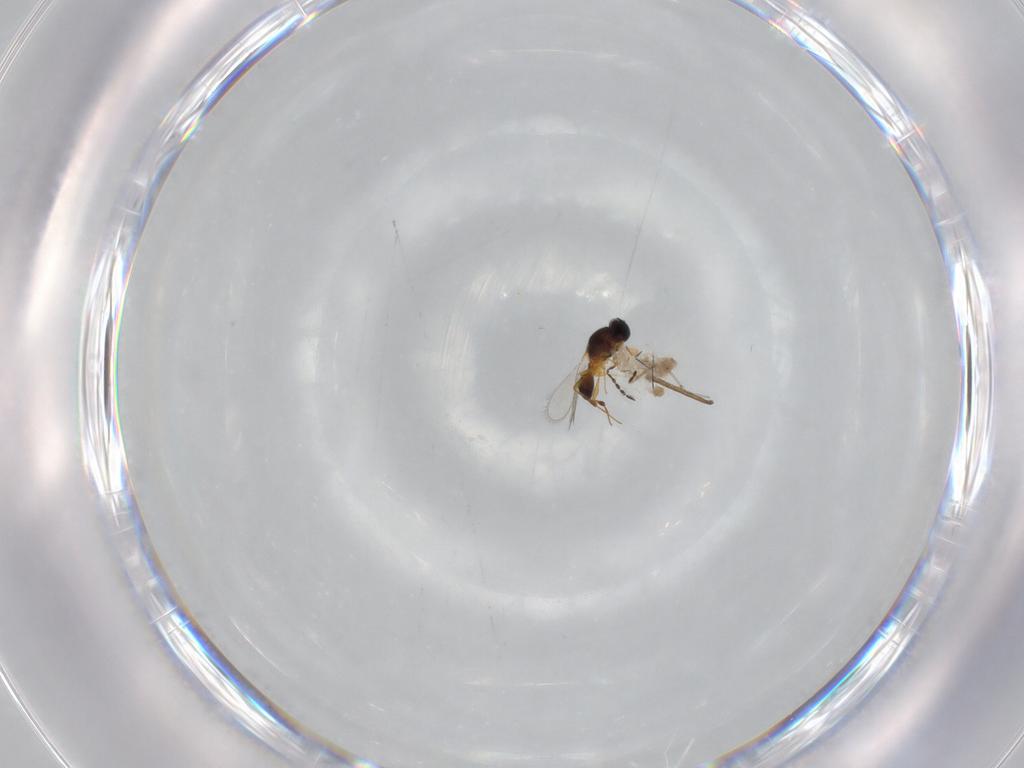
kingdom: Animalia
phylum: Arthropoda
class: Insecta
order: Hymenoptera
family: Platygastridae
